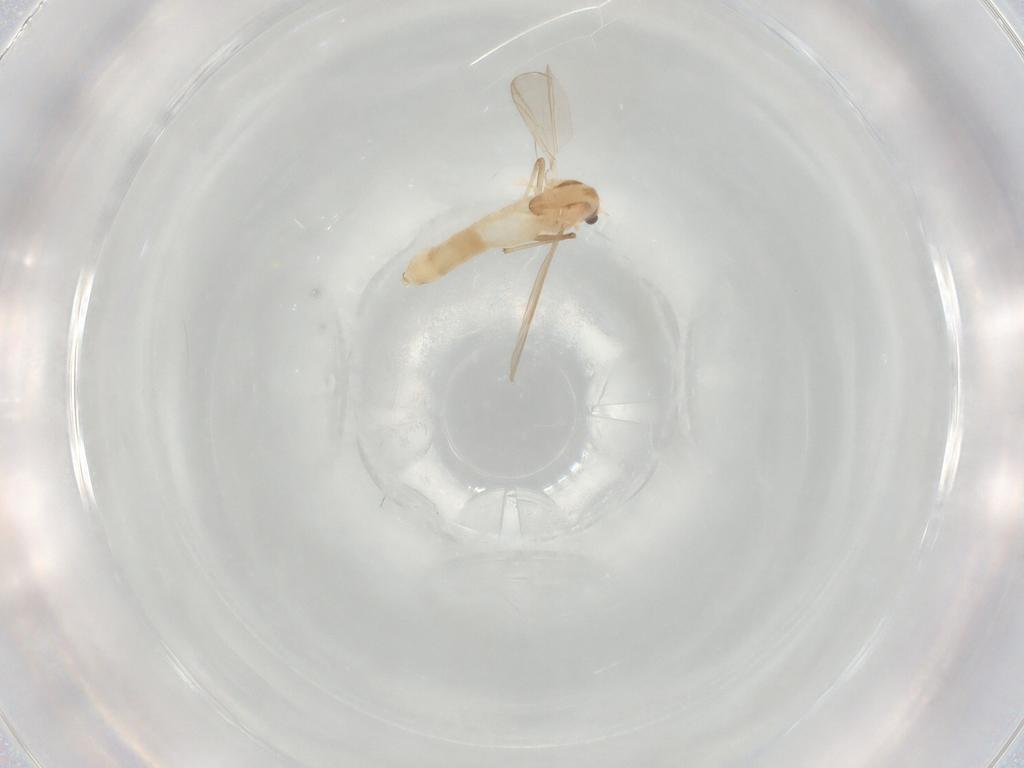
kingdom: Animalia
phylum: Arthropoda
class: Insecta
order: Diptera
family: Chironomidae
